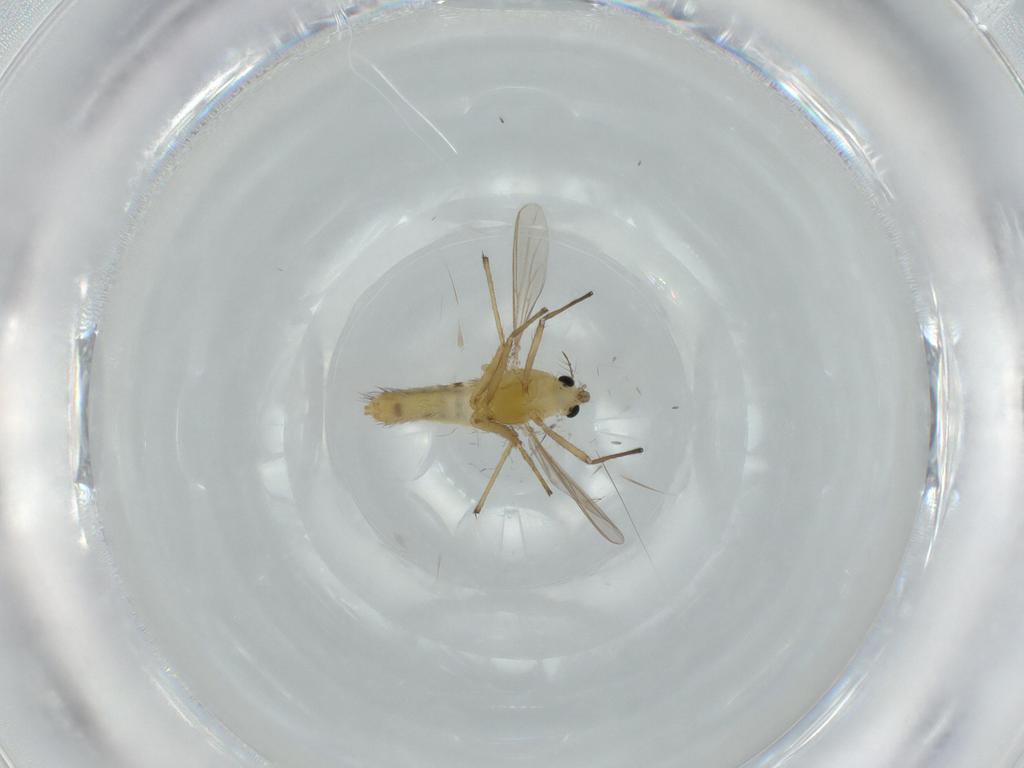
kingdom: Animalia
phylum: Arthropoda
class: Insecta
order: Diptera
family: Chironomidae
